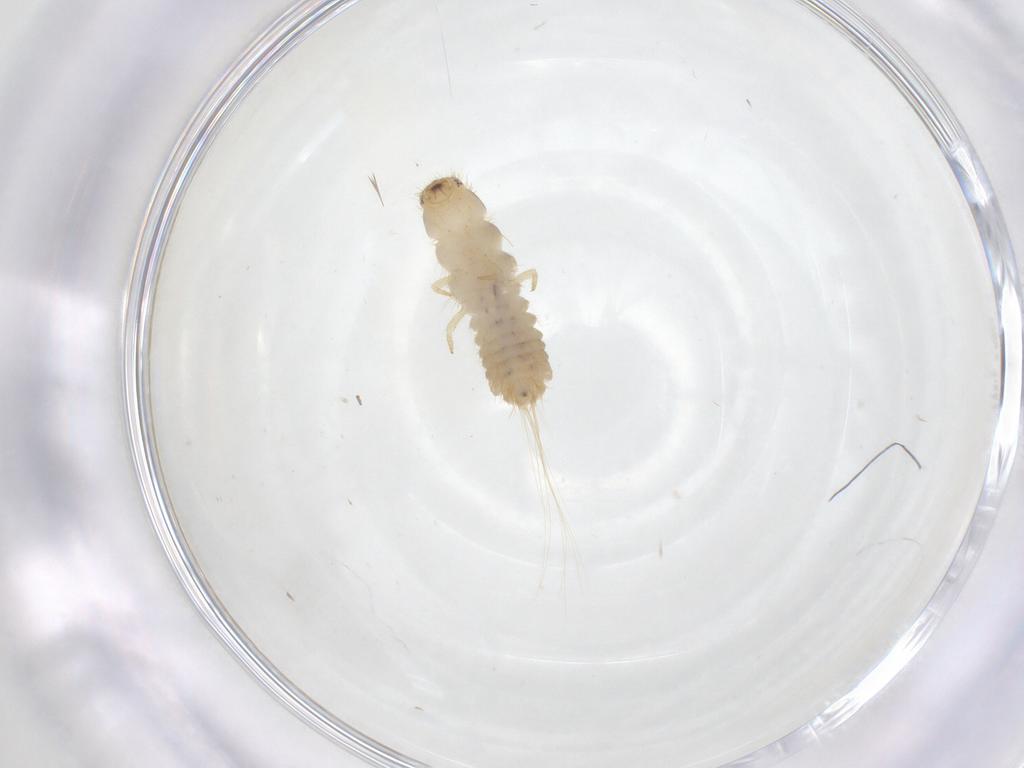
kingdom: Animalia
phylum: Arthropoda
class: Insecta
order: Coleoptera
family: Dermestidae
